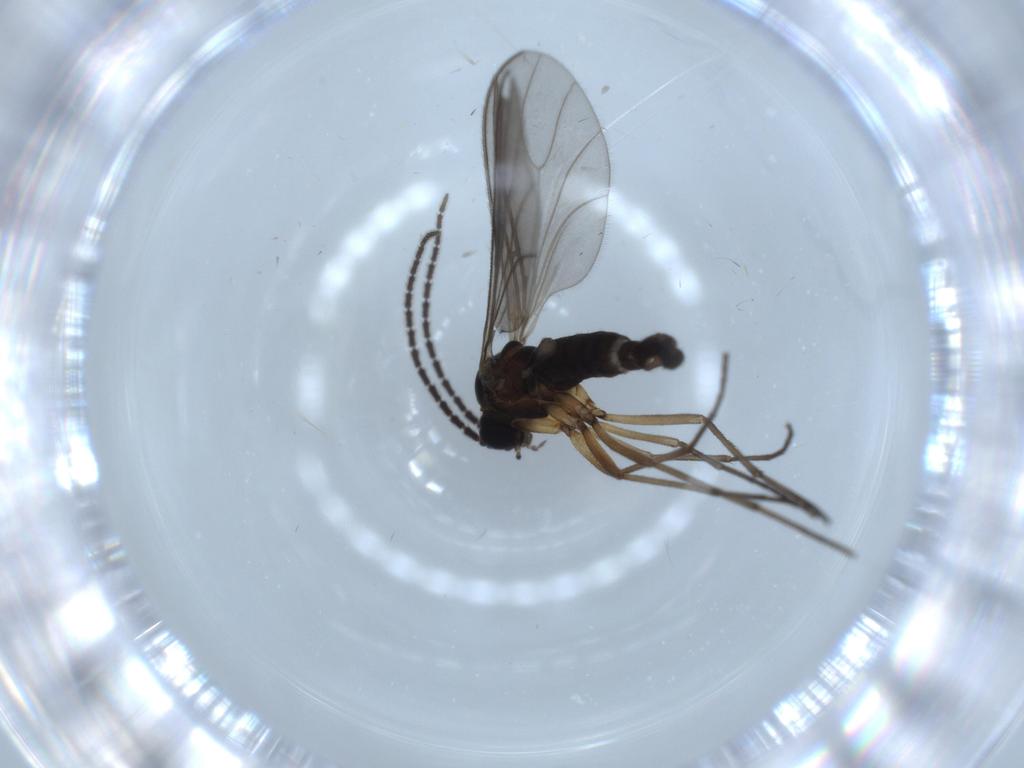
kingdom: Animalia
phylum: Arthropoda
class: Insecta
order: Diptera
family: Sciaridae
